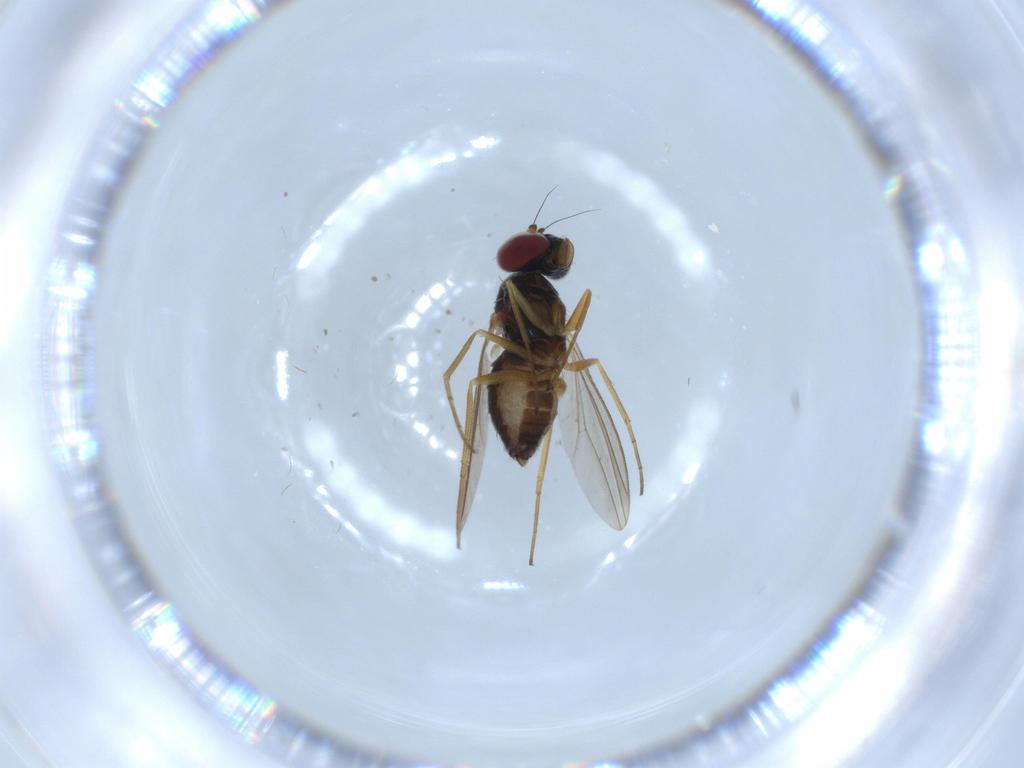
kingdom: Animalia
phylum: Arthropoda
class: Insecta
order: Diptera
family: Dolichopodidae
